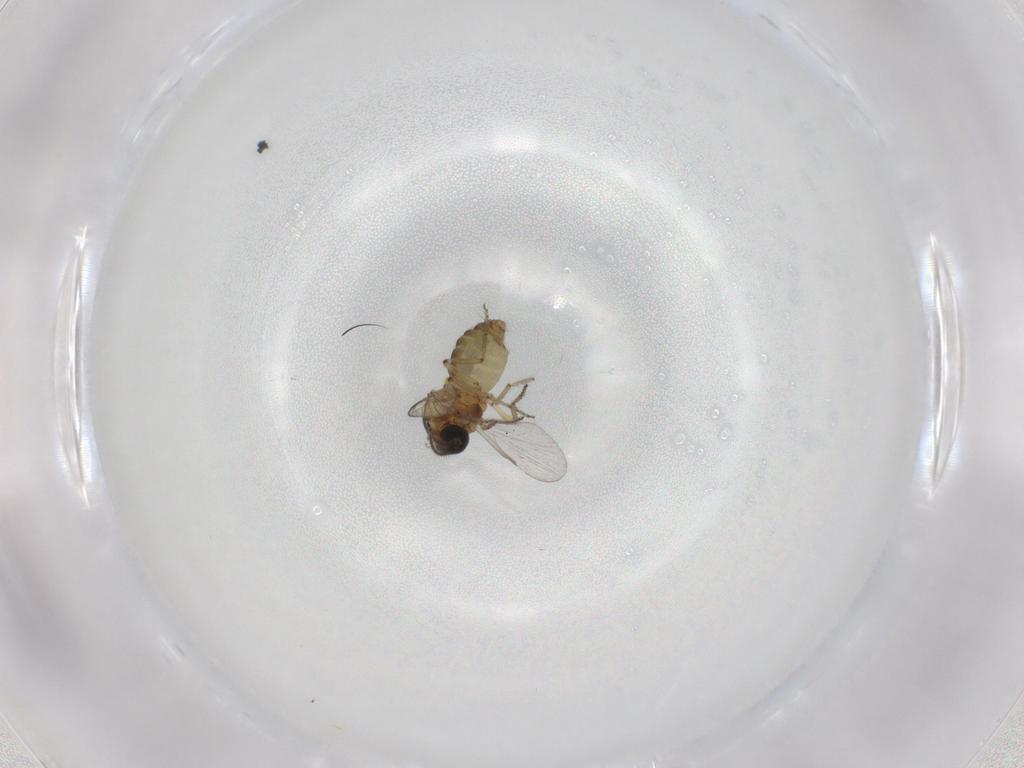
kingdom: Animalia
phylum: Arthropoda
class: Insecta
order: Diptera
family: Ceratopogonidae
